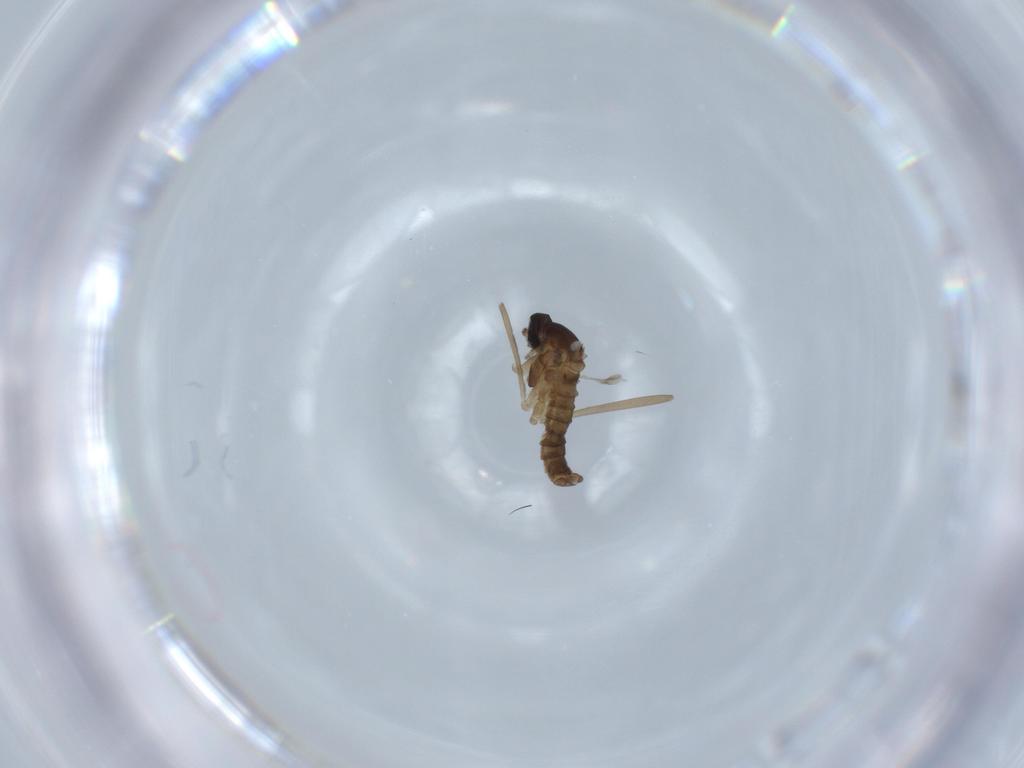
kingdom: Animalia
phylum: Arthropoda
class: Insecta
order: Diptera
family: Cecidomyiidae
